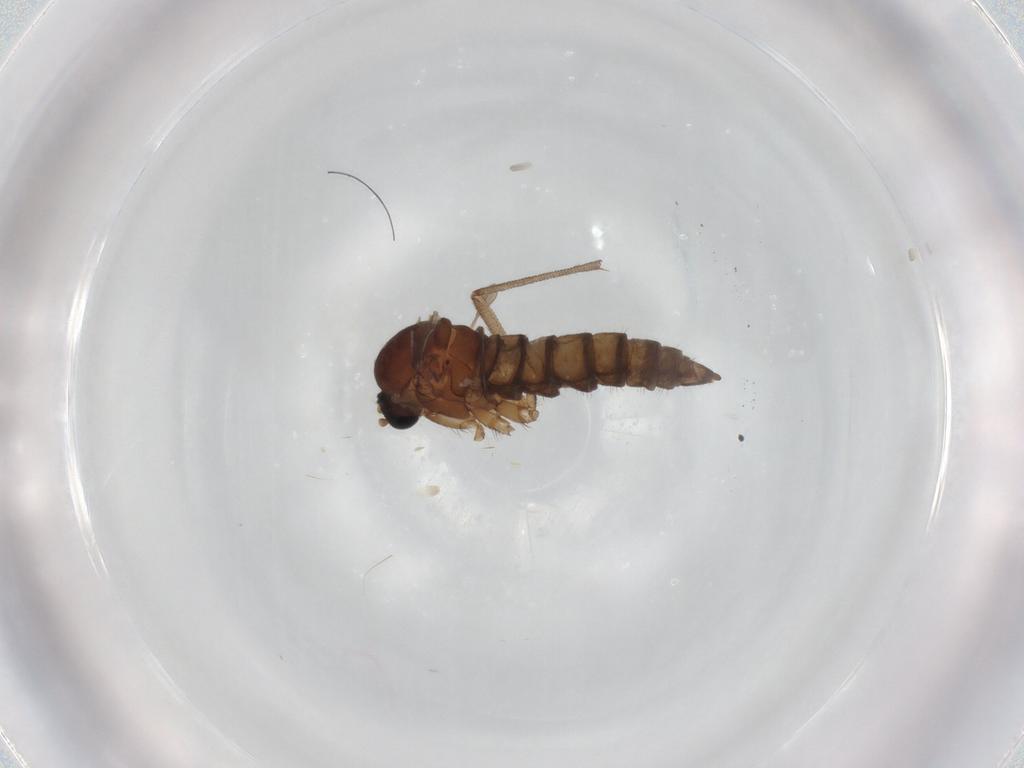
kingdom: Animalia
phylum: Arthropoda
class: Insecta
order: Diptera
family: Sciaridae
